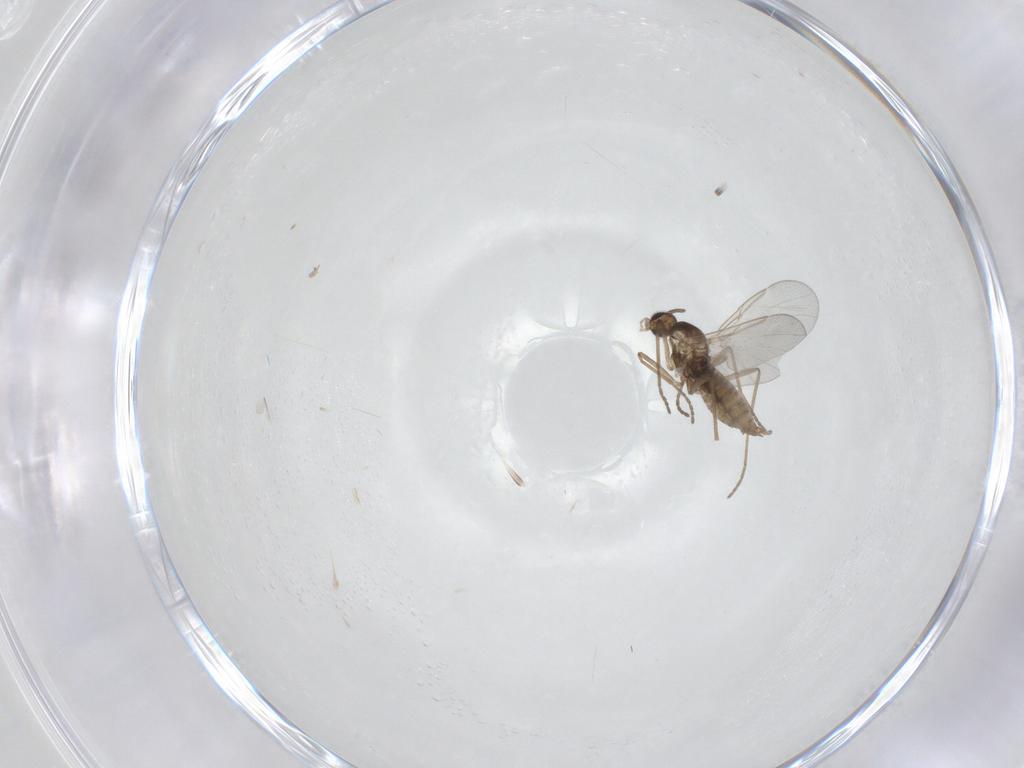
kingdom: Animalia
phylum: Arthropoda
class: Insecta
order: Diptera
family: Cecidomyiidae
